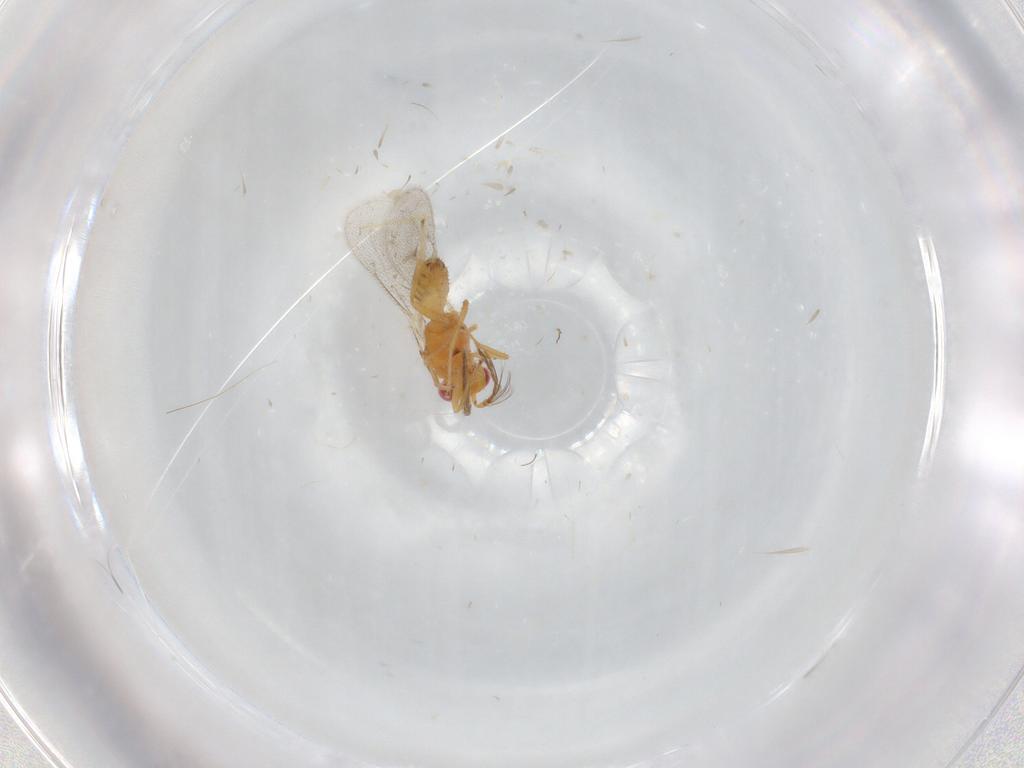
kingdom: Animalia
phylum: Arthropoda
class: Insecta
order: Hymenoptera
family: Eulophidae
